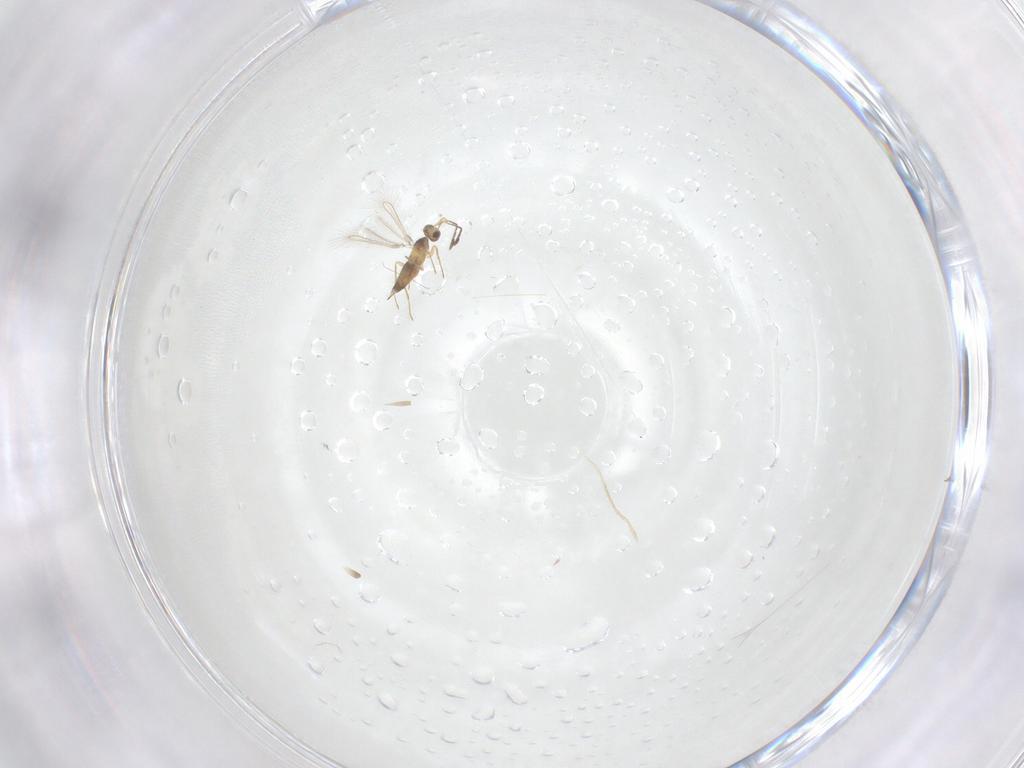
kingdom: Animalia
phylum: Arthropoda
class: Insecta
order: Hymenoptera
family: Mymaridae
